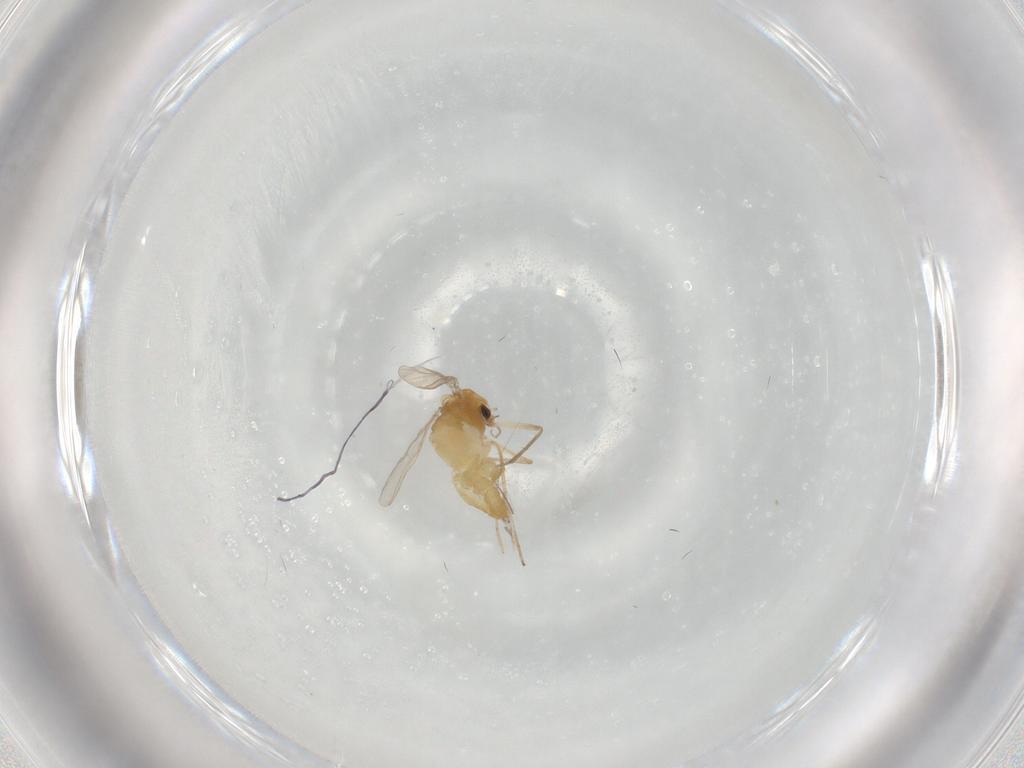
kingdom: Animalia
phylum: Arthropoda
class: Insecta
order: Diptera
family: Chironomidae
